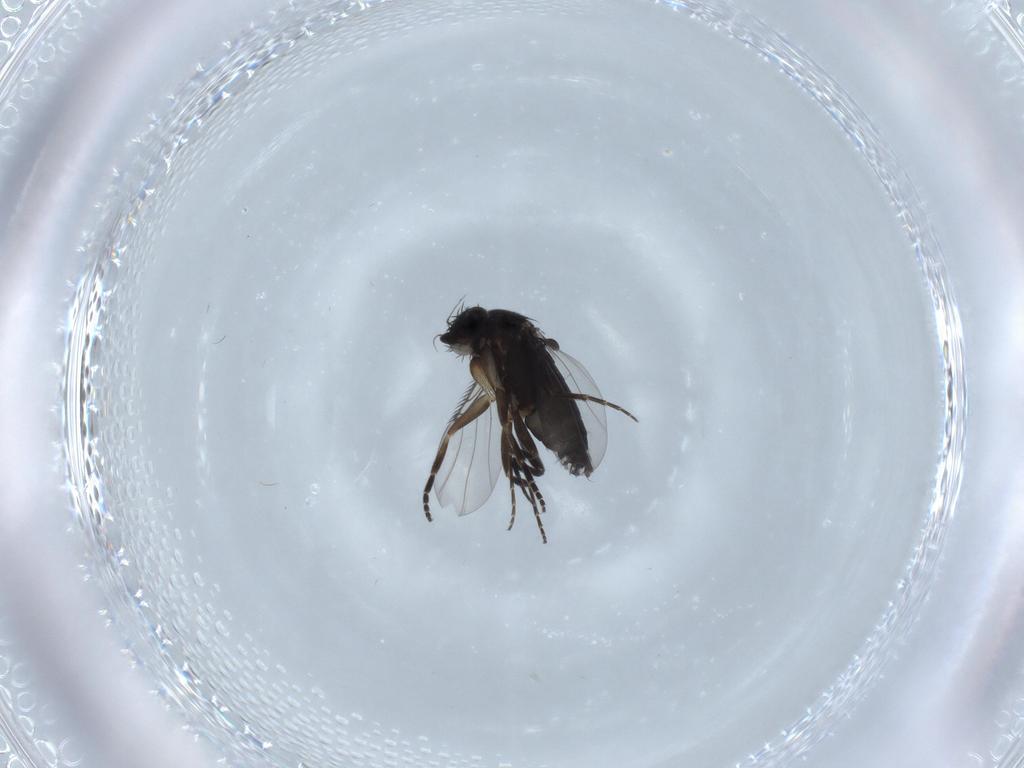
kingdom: Animalia
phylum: Arthropoda
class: Insecta
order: Diptera
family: Phoridae
